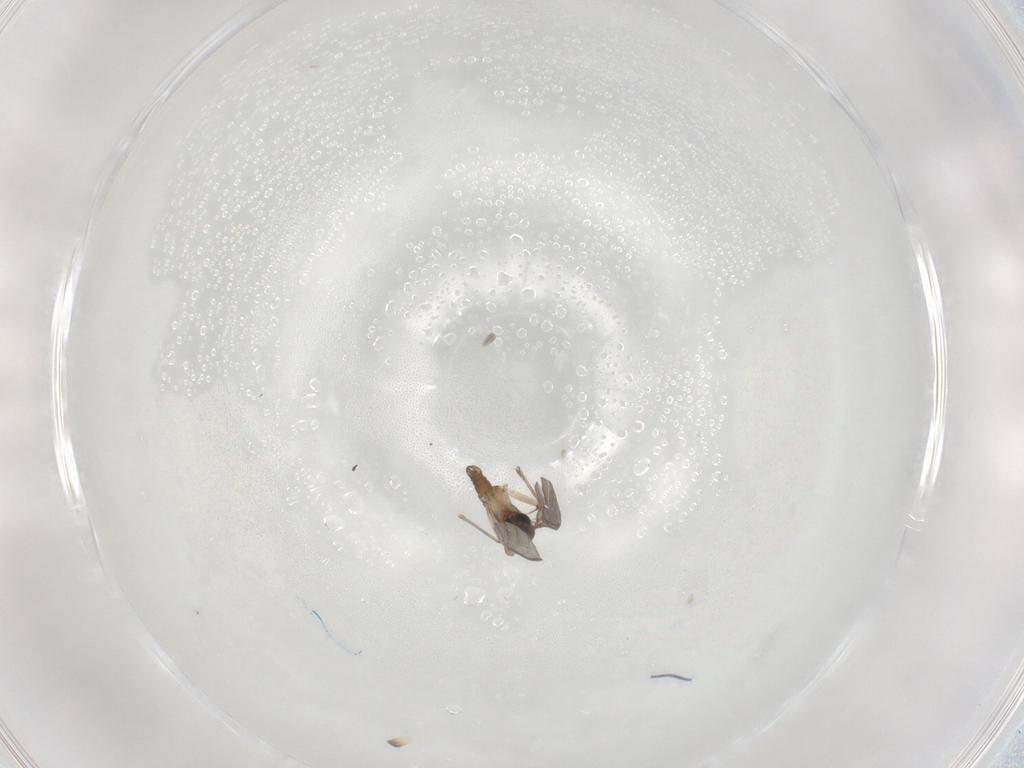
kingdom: Animalia
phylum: Arthropoda
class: Insecta
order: Diptera
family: Sciaridae
